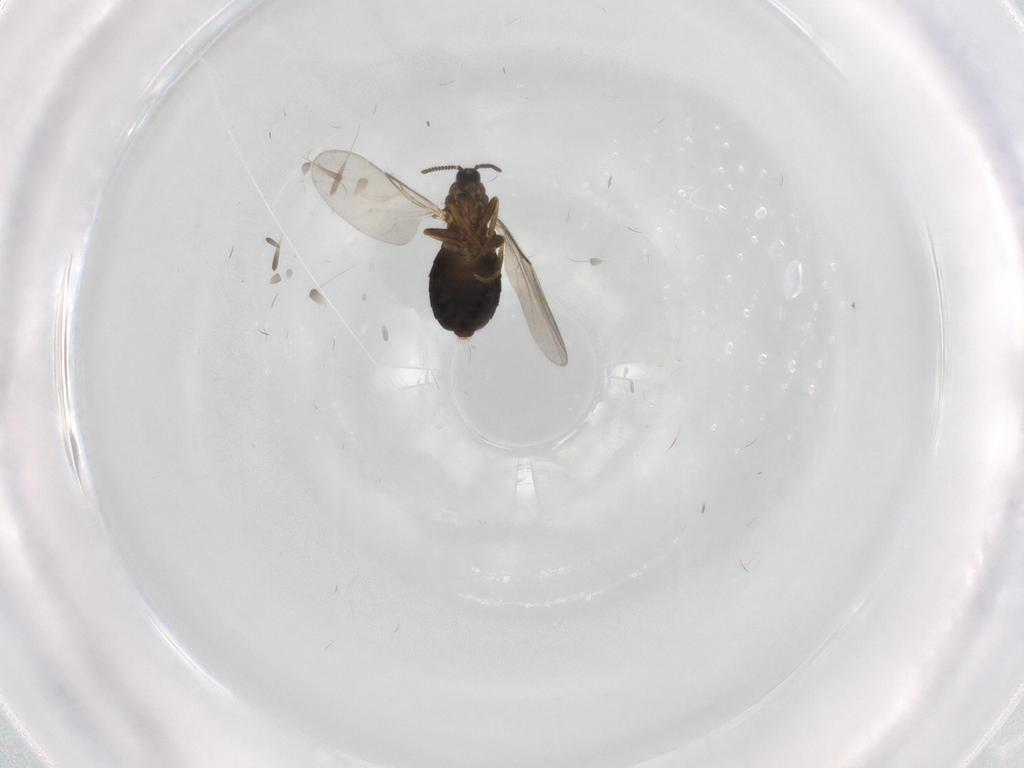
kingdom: Animalia
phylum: Arthropoda
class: Insecta
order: Diptera
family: Scatopsidae
